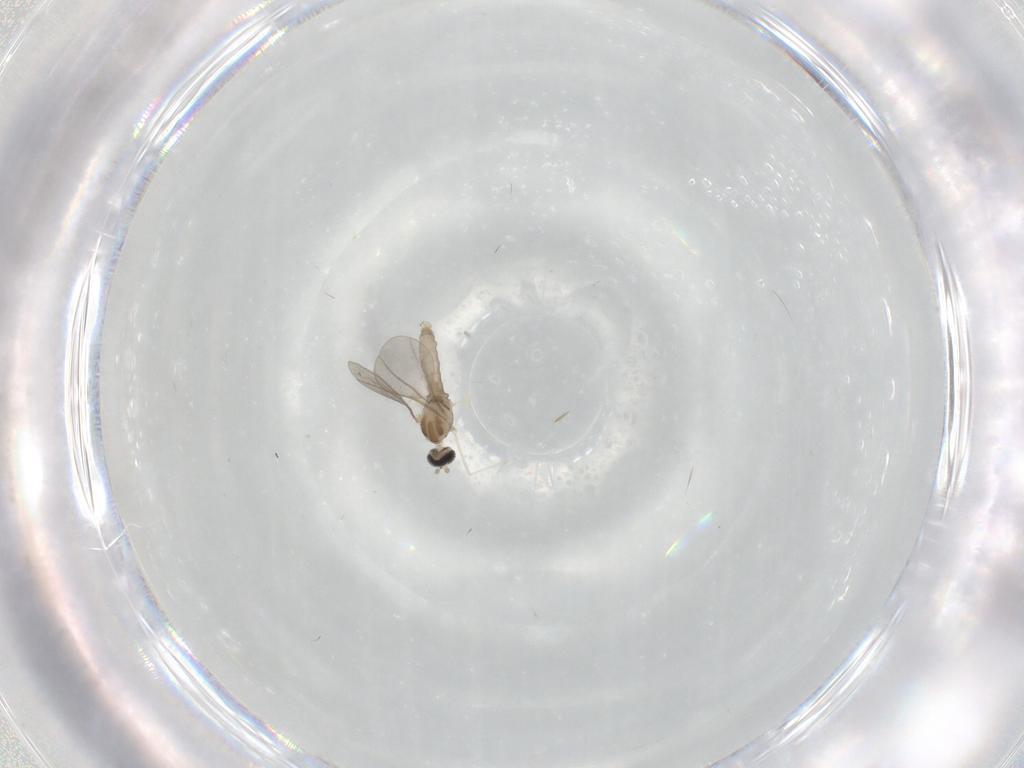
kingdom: Animalia
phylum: Arthropoda
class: Insecta
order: Diptera
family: Cecidomyiidae
